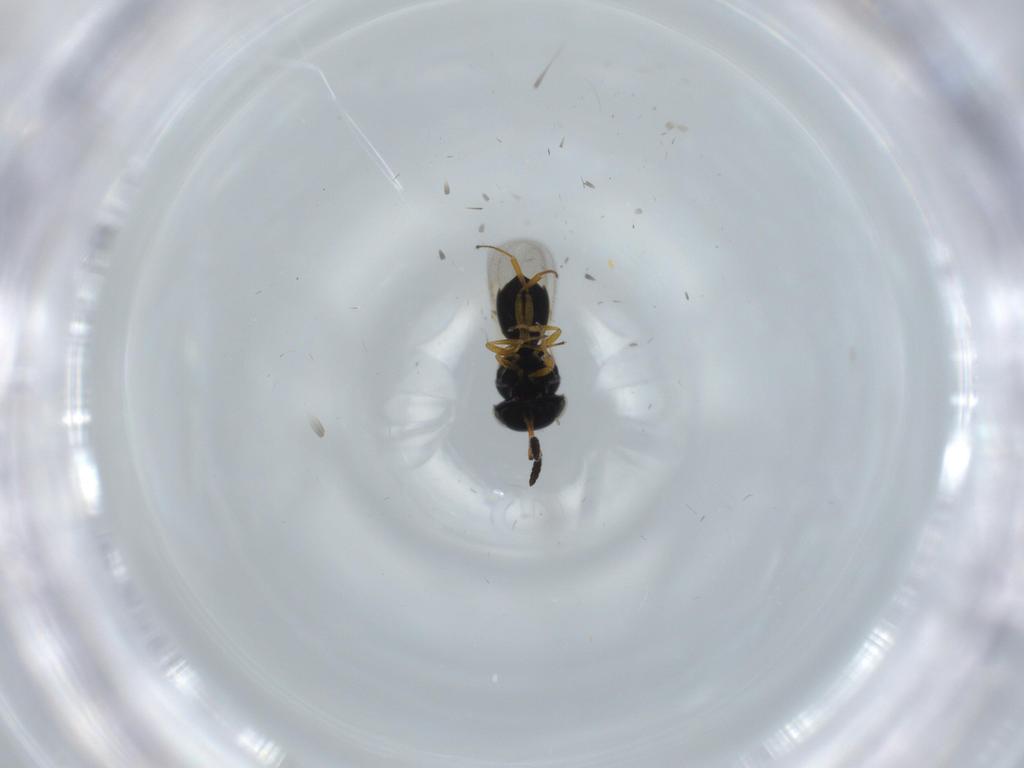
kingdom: Animalia
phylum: Arthropoda
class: Insecta
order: Hymenoptera
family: Scelionidae
